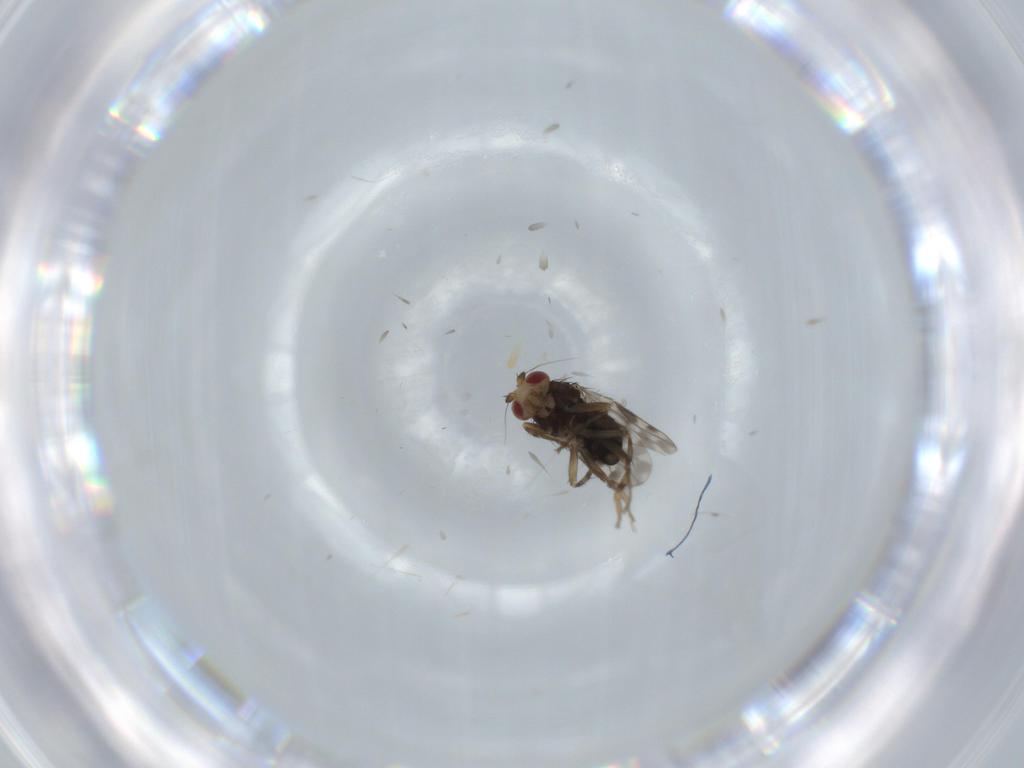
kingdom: Animalia
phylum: Arthropoda
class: Insecta
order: Diptera
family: Sphaeroceridae
